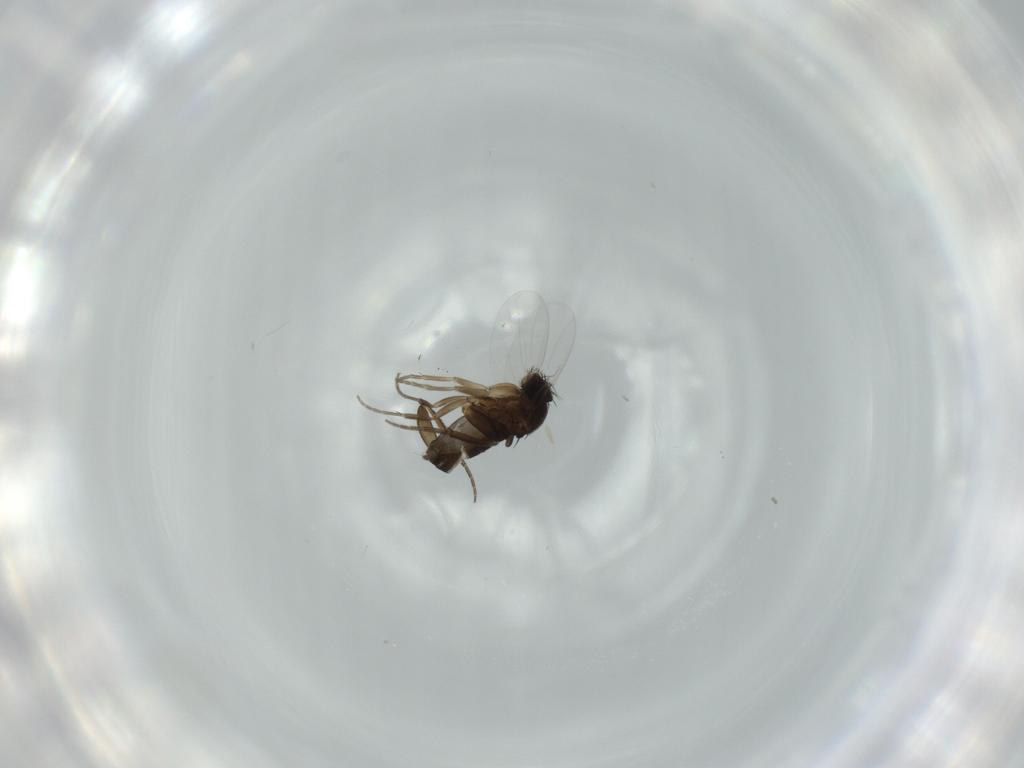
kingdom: Animalia
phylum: Arthropoda
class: Insecta
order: Diptera
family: Phoridae
